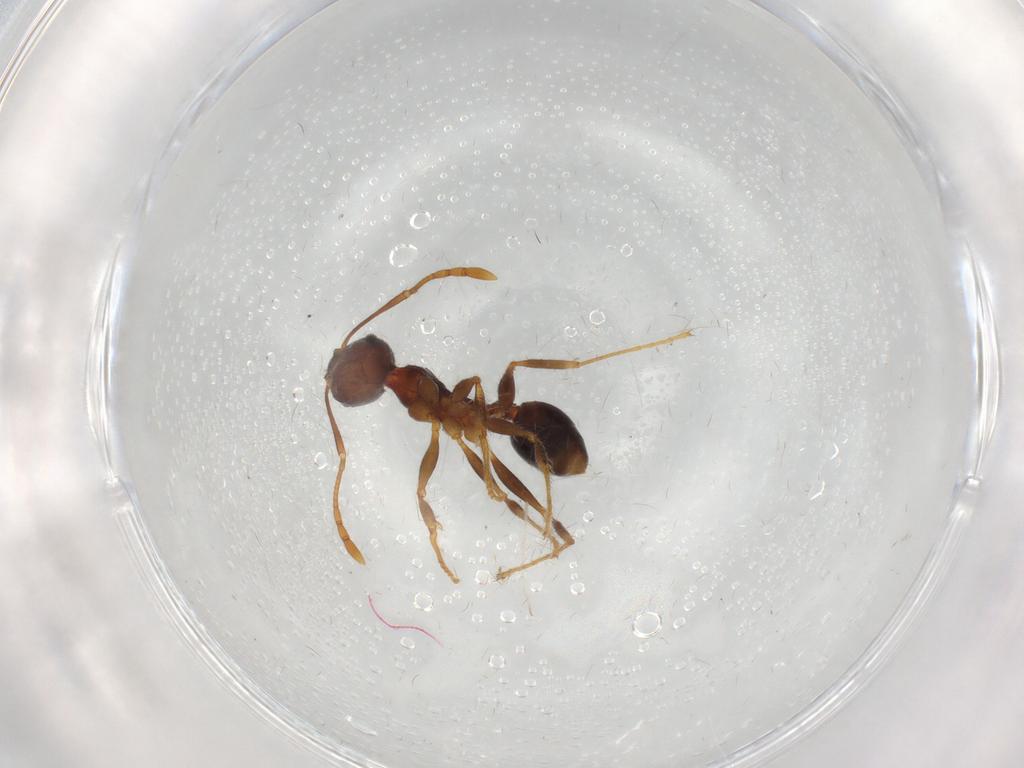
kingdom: Animalia
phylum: Arthropoda
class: Insecta
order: Hymenoptera
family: Formicidae
